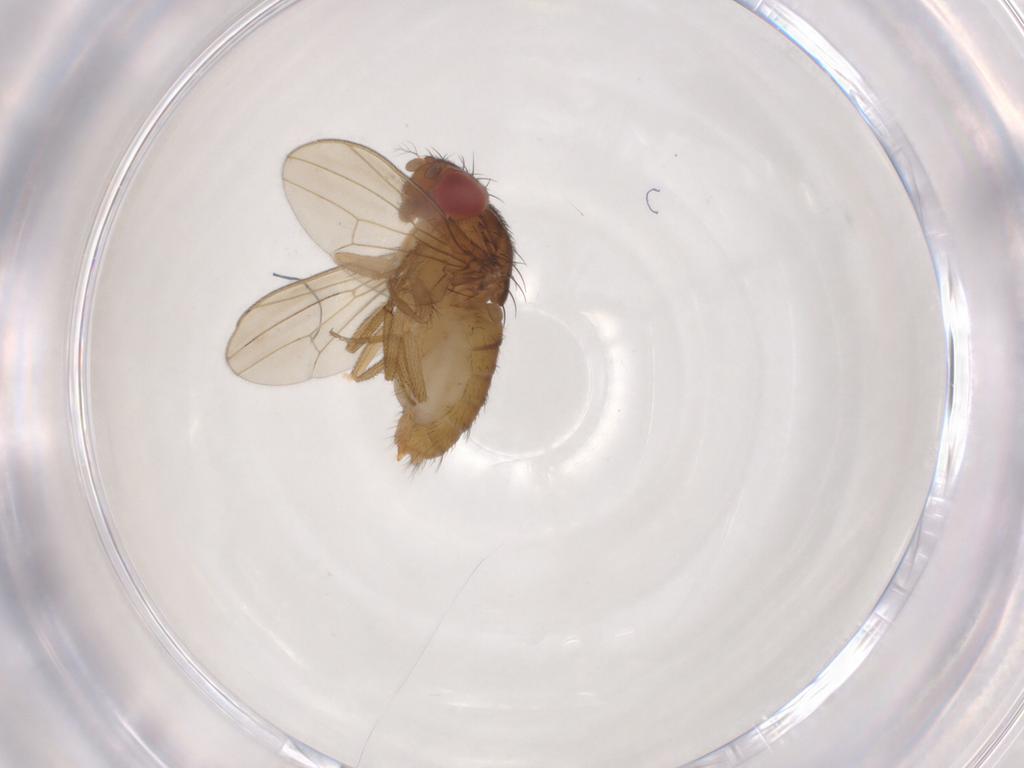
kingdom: Animalia
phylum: Arthropoda
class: Insecta
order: Diptera
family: Drosophilidae
